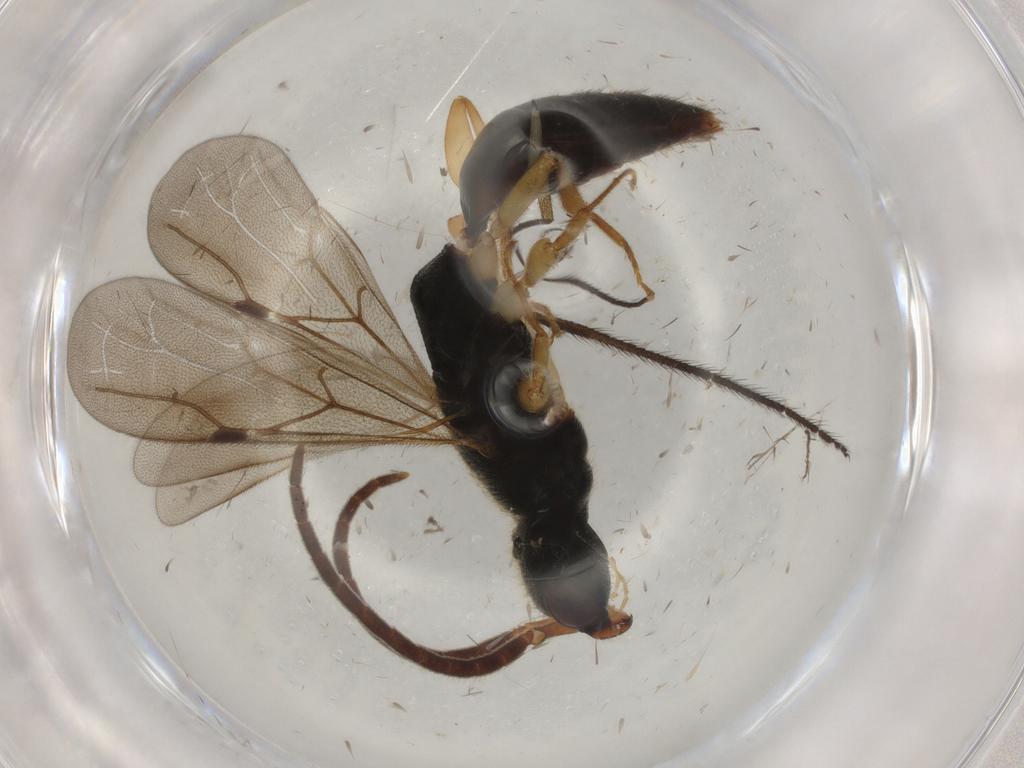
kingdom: Animalia
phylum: Arthropoda
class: Insecta
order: Hymenoptera
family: Bethylidae
